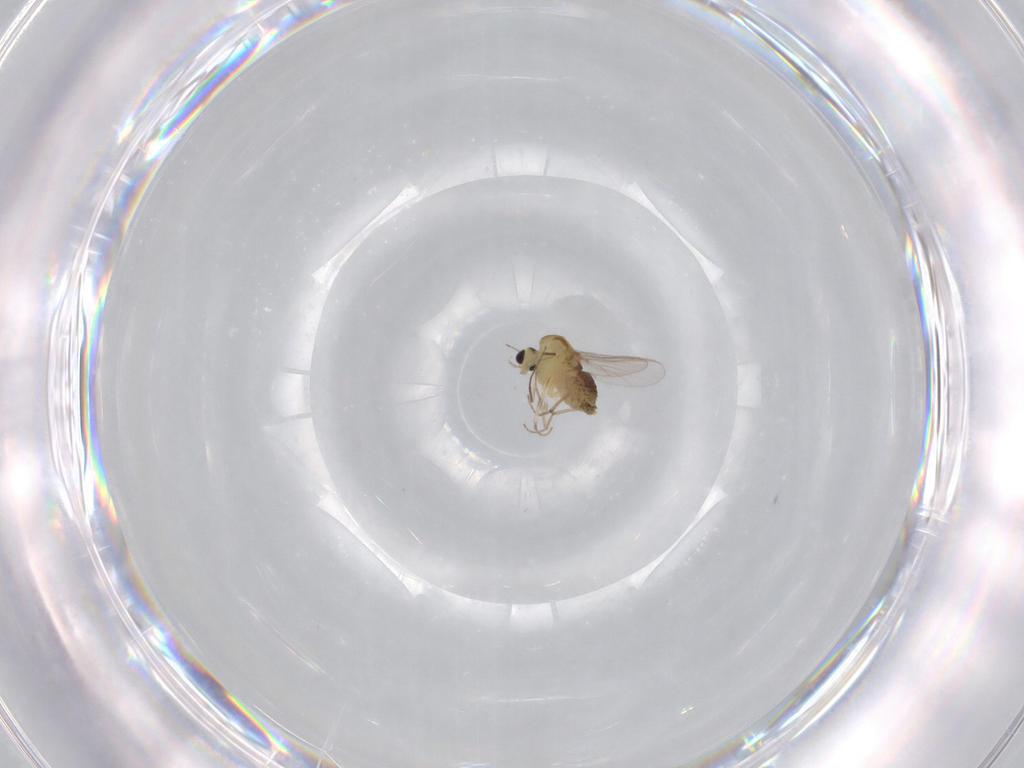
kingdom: Animalia
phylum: Arthropoda
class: Insecta
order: Diptera
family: Chironomidae
